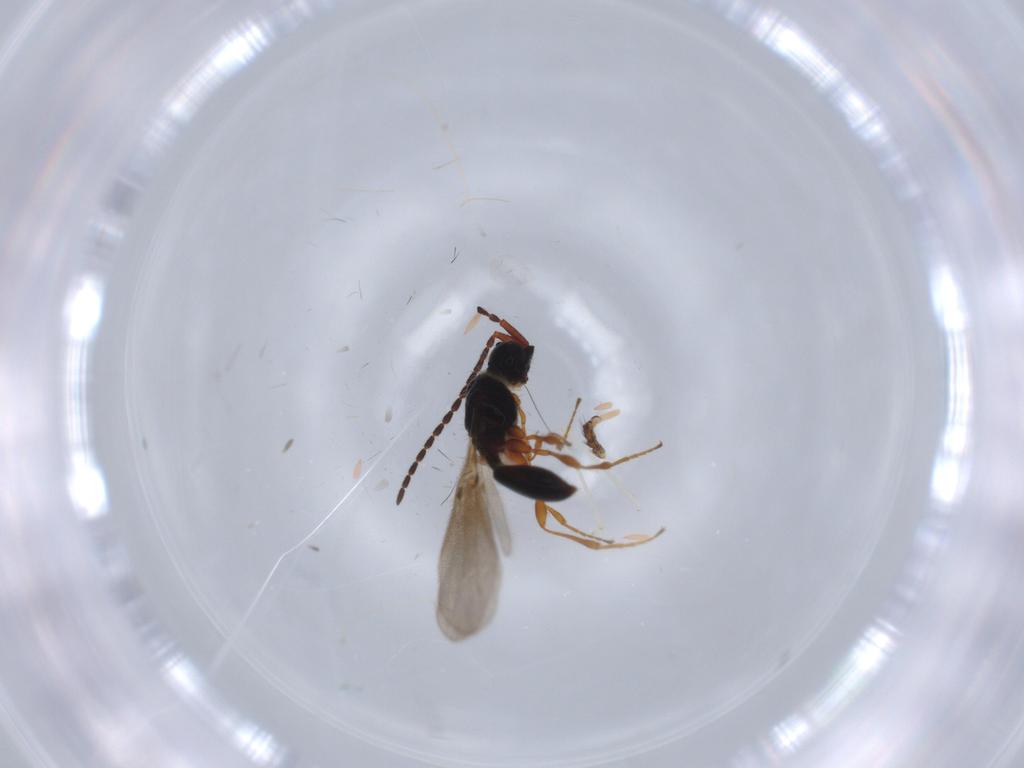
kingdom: Animalia
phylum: Arthropoda
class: Insecta
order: Hymenoptera
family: Diapriidae
